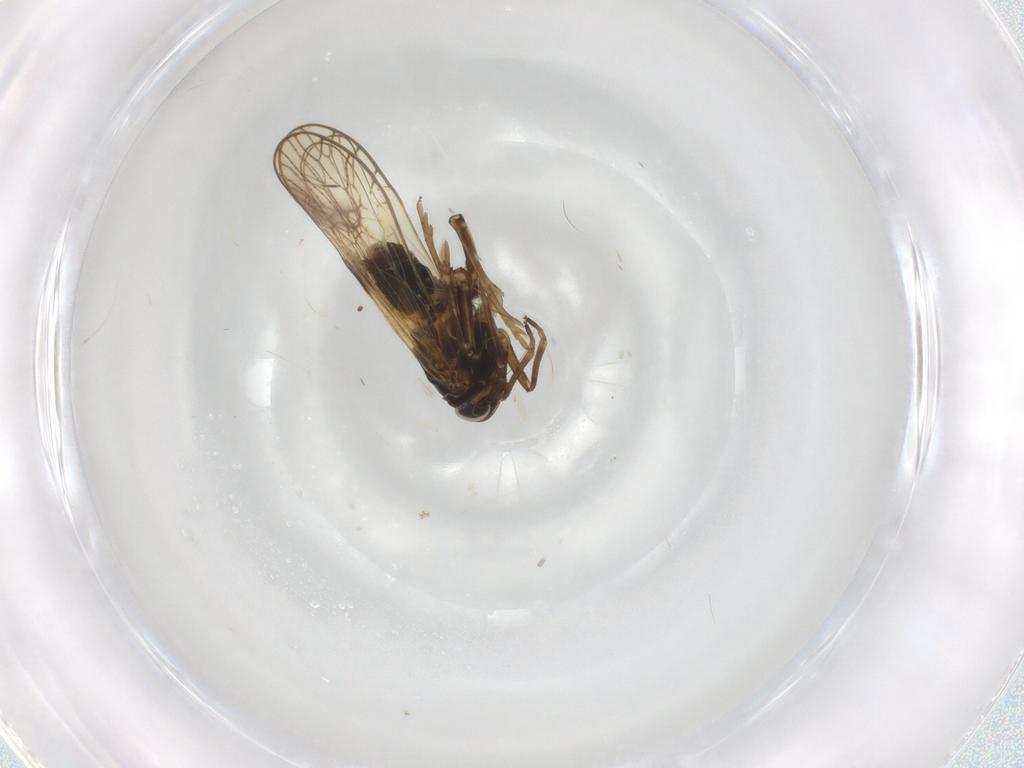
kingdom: Animalia
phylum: Arthropoda
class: Insecta
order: Hemiptera
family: Delphacidae
